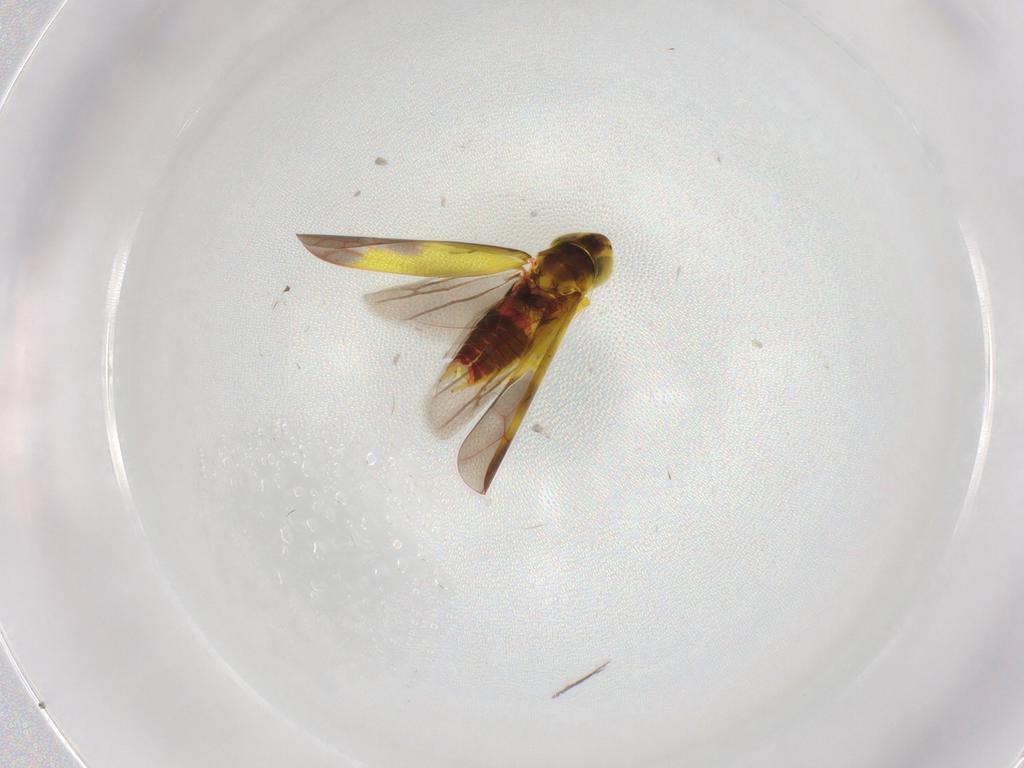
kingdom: Animalia
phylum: Arthropoda
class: Insecta
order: Hemiptera
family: Cicadellidae
